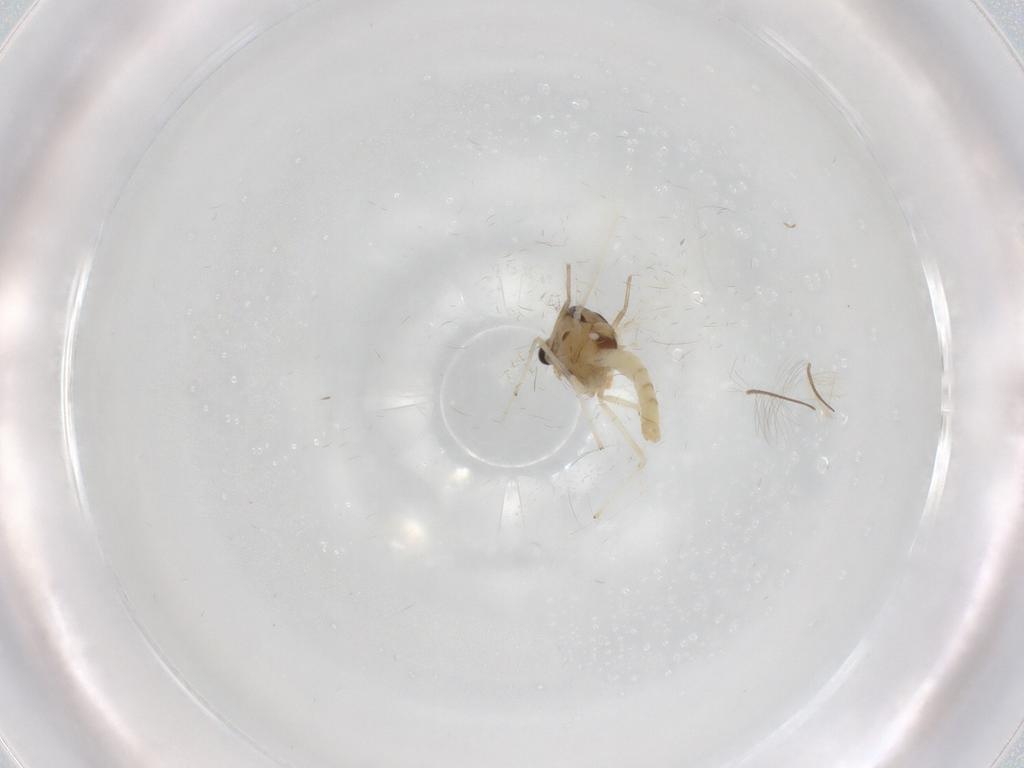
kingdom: Animalia
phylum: Arthropoda
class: Insecta
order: Diptera
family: Chironomidae
